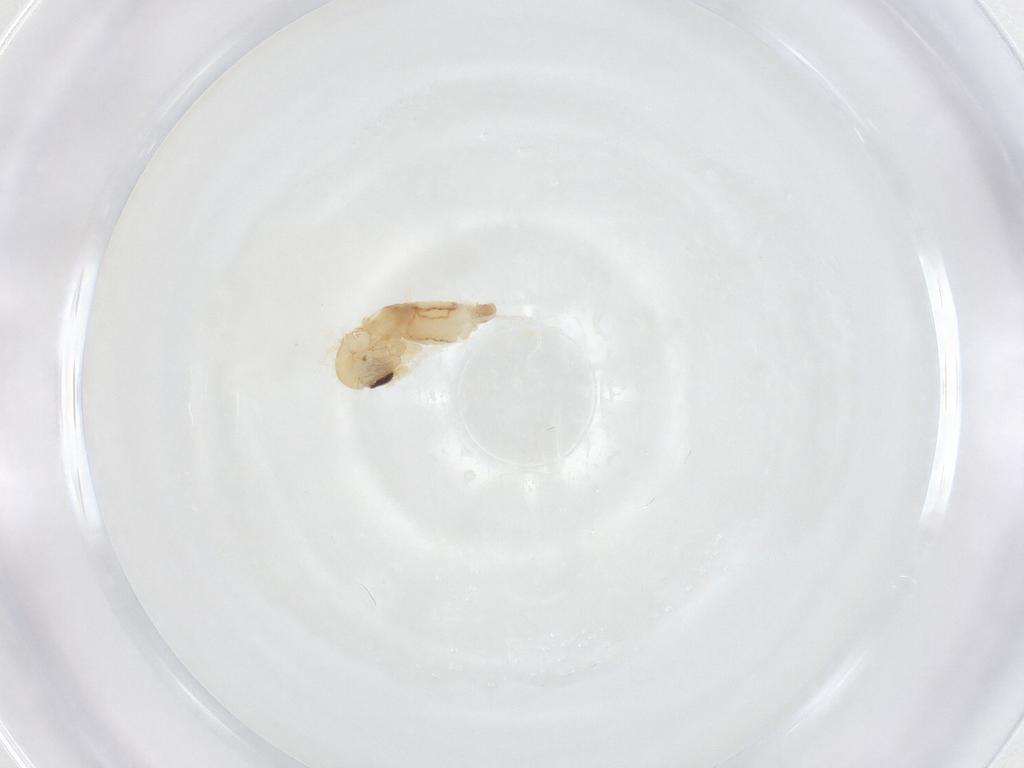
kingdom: Animalia
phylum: Arthropoda
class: Insecta
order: Diptera
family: Psychodidae
